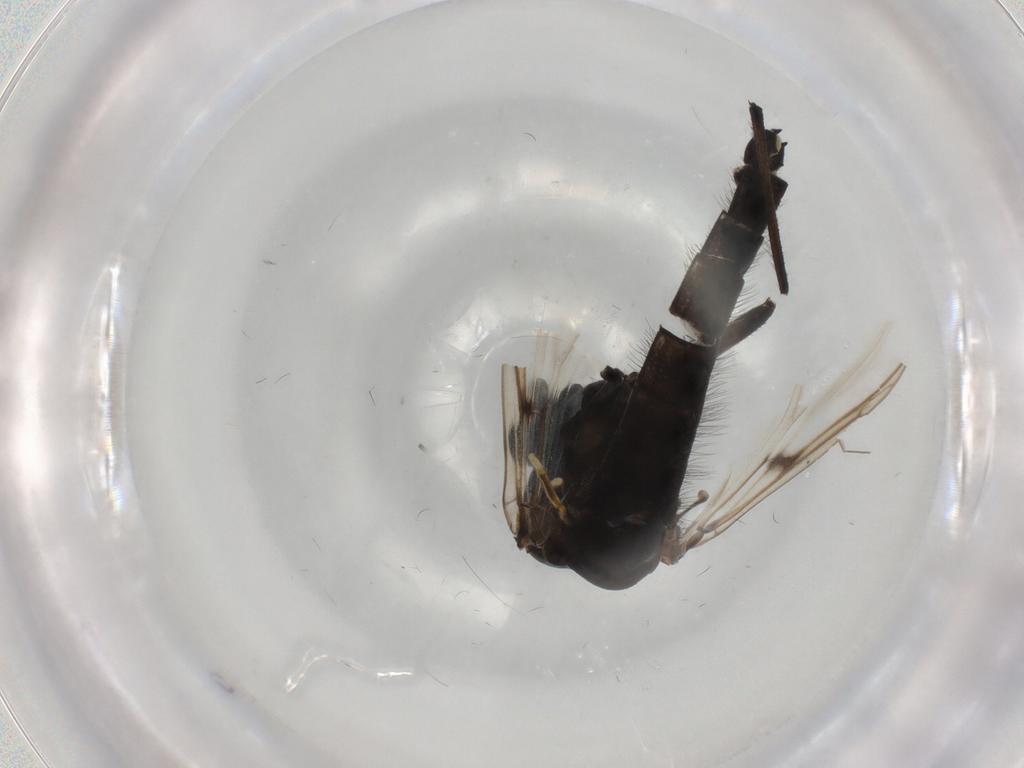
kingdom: Animalia
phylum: Arthropoda
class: Insecta
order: Diptera
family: Chironomidae
